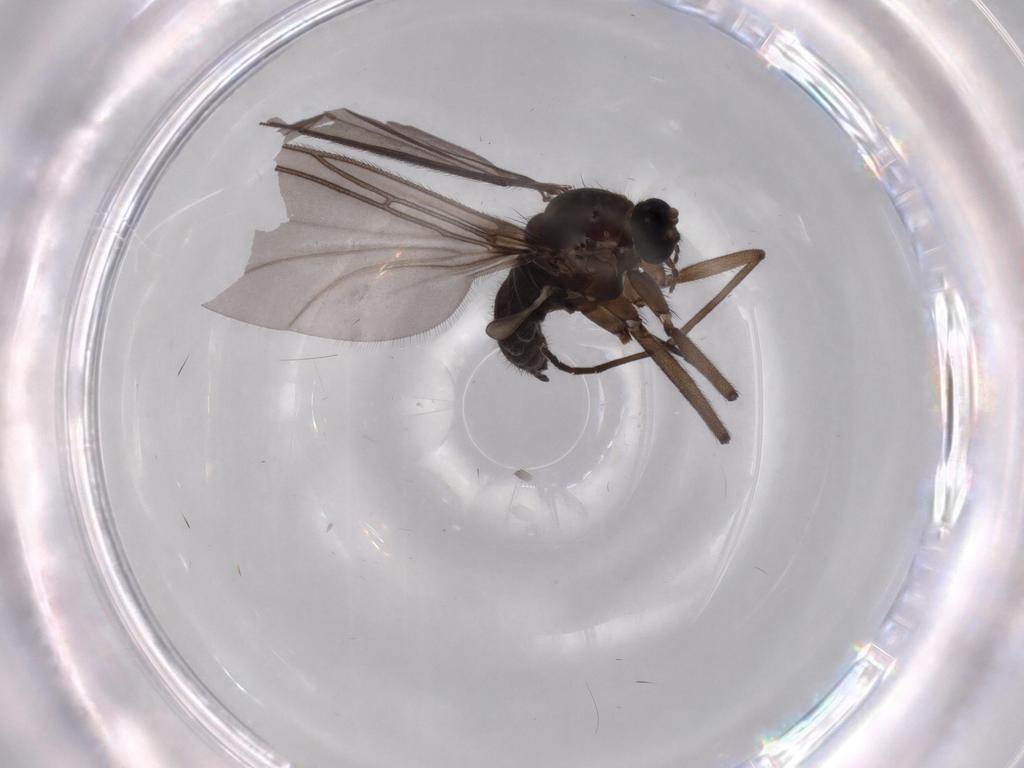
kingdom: Animalia
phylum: Arthropoda
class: Insecta
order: Diptera
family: Sciaridae
